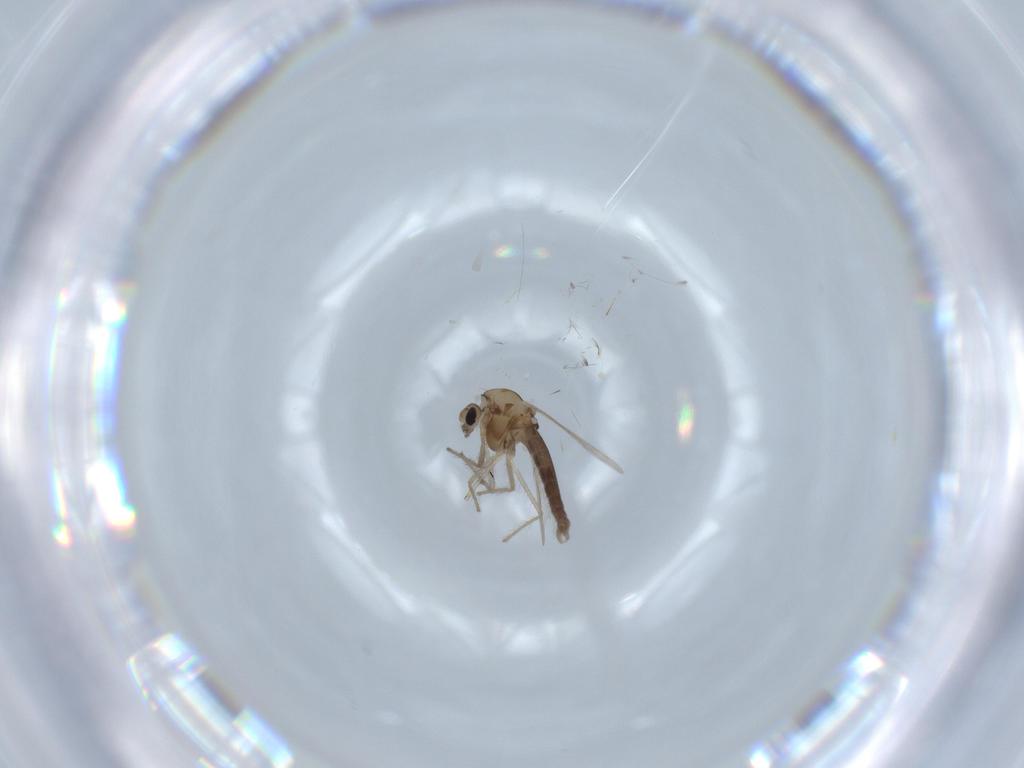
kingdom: Animalia
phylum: Arthropoda
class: Insecta
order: Diptera
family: Chironomidae
